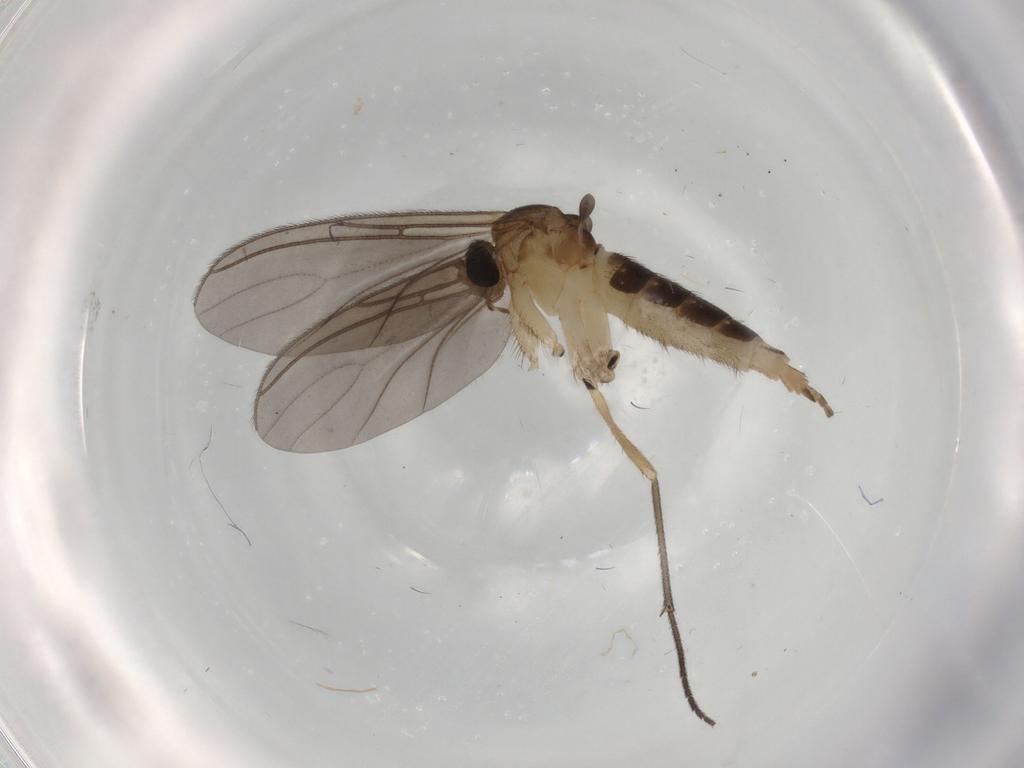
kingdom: Animalia
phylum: Arthropoda
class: Insecta
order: Diptera
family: Sciaridae
